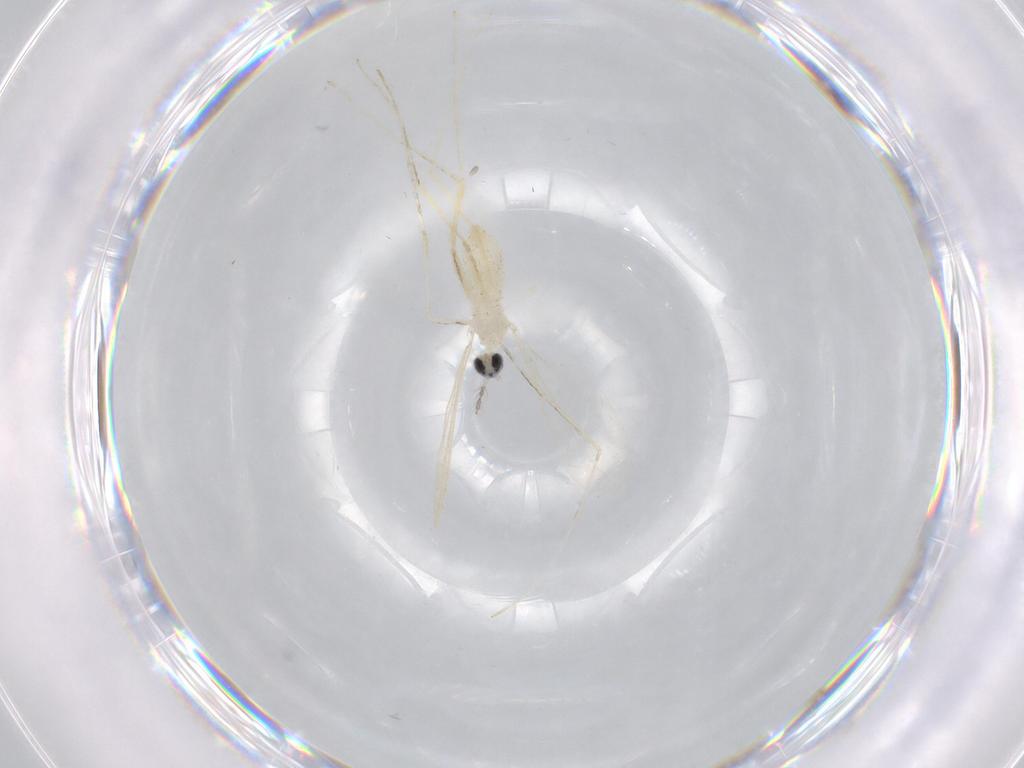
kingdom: Animalia
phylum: Arthropoda
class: Insecta
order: Diptera
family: Cecidomyiidae
